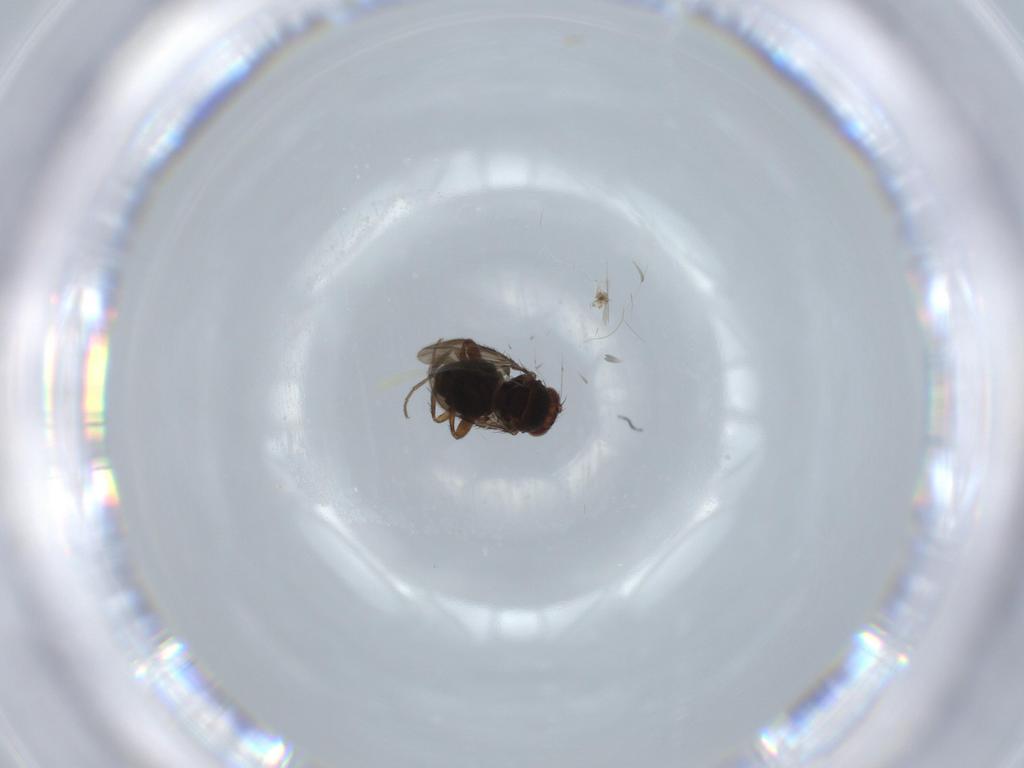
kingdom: Animalia
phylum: Arthropoda
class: Insecta
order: Diptera
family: Sphaeroceridae
